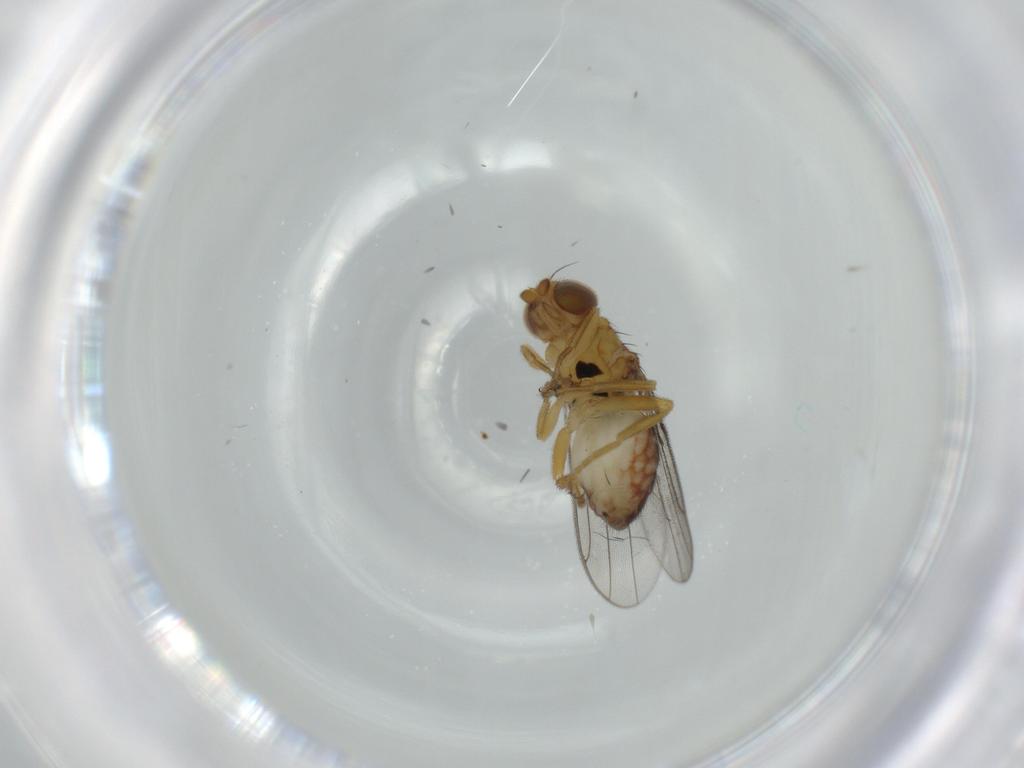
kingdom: Animalia
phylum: Arthropoda
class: Insecta
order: Diptera
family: Chloropidae
